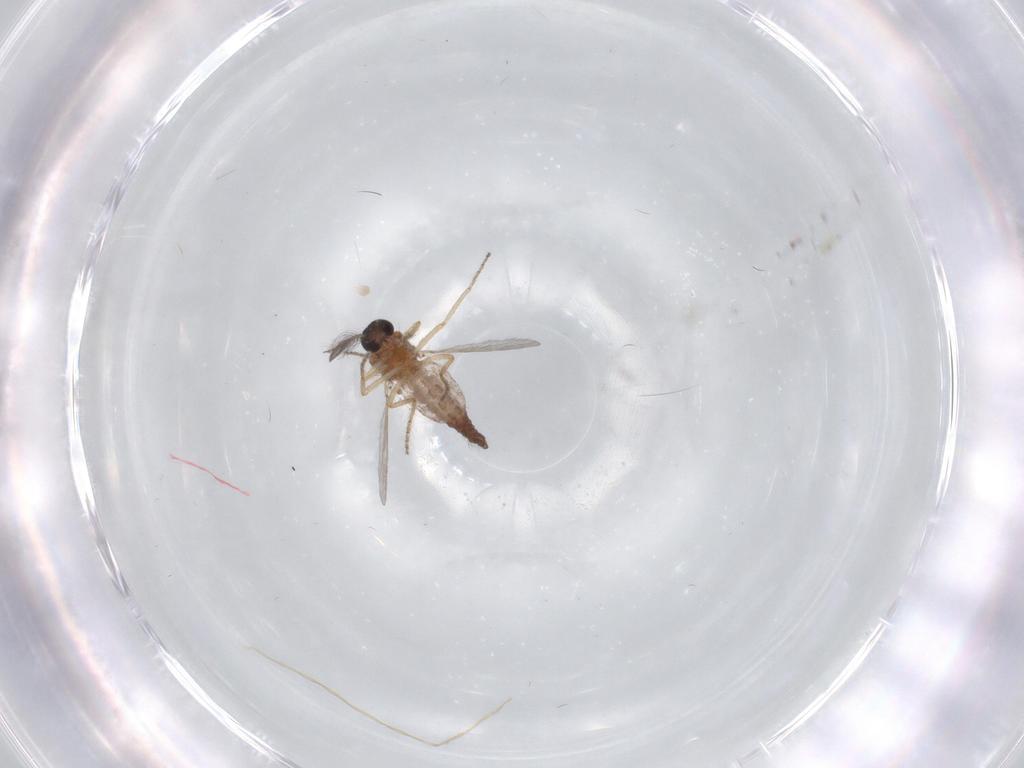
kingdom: Animalia
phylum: Arthropoda
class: Insecta
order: Diptera
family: Ceratopogonidae
